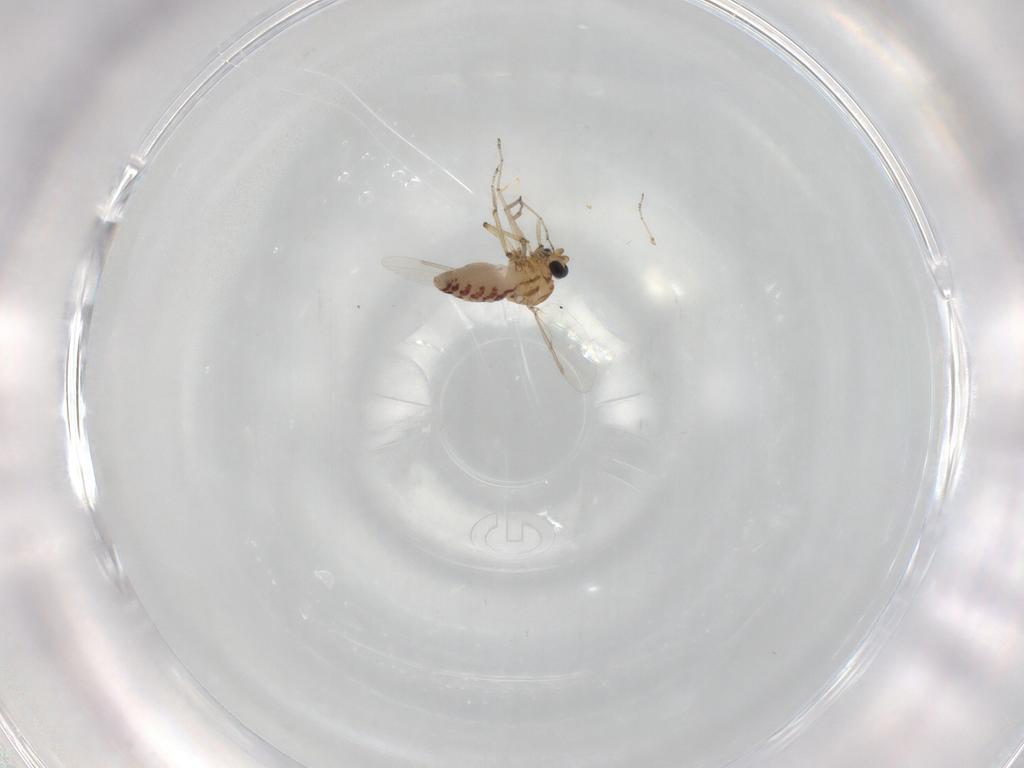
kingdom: Animalia
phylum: Arthropoda
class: Insecta
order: Diptera
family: Ceratopogonidae
